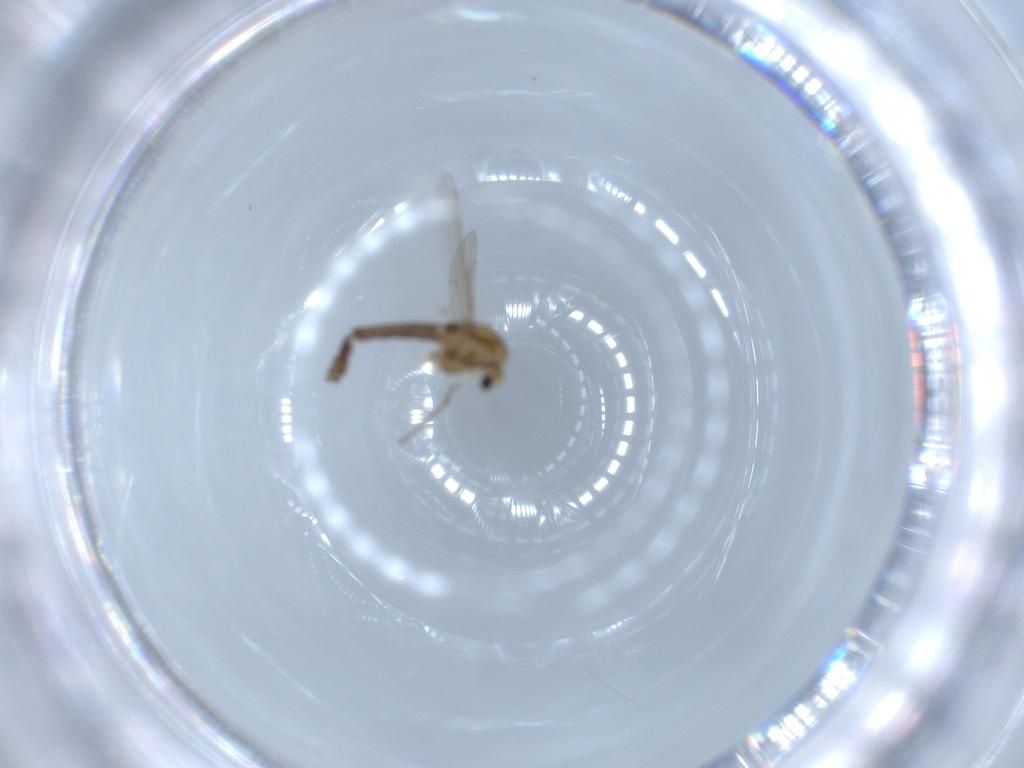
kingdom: Animalia
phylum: Arthropoda
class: Insecta
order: Diptera
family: Chironomidae
